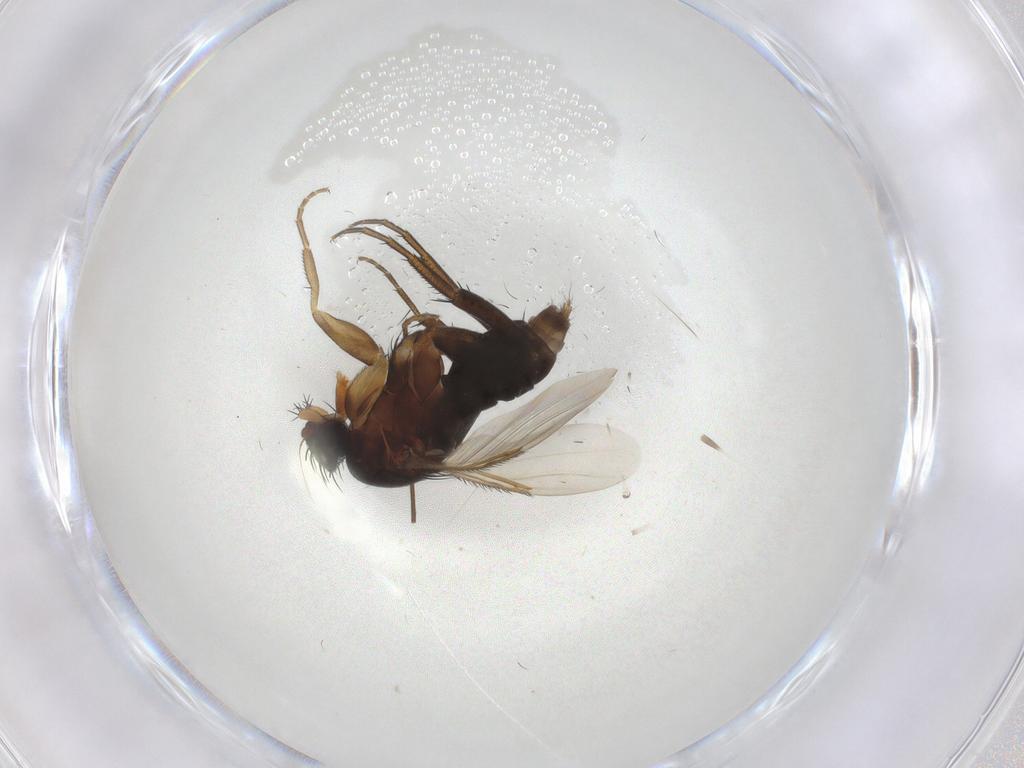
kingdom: Animalia
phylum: Arthropoda
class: Insecta
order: Diptera
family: Phoridae
